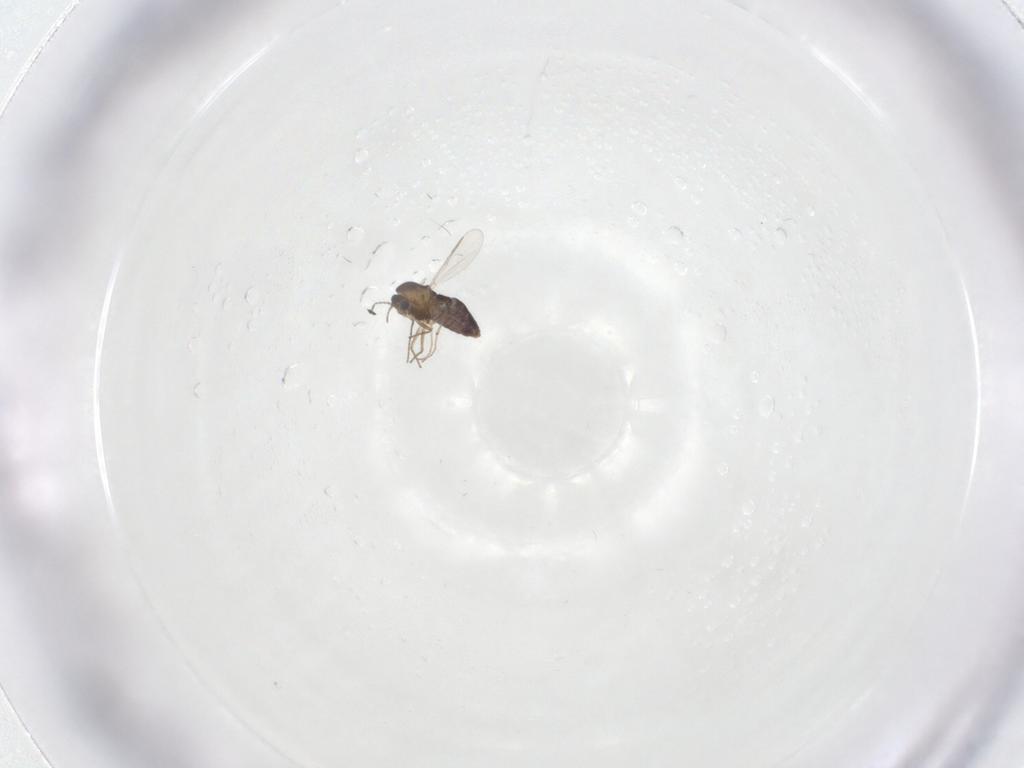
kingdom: Animalia
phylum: Arthropoda
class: Insecta
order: Diptera
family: Chironomidae
